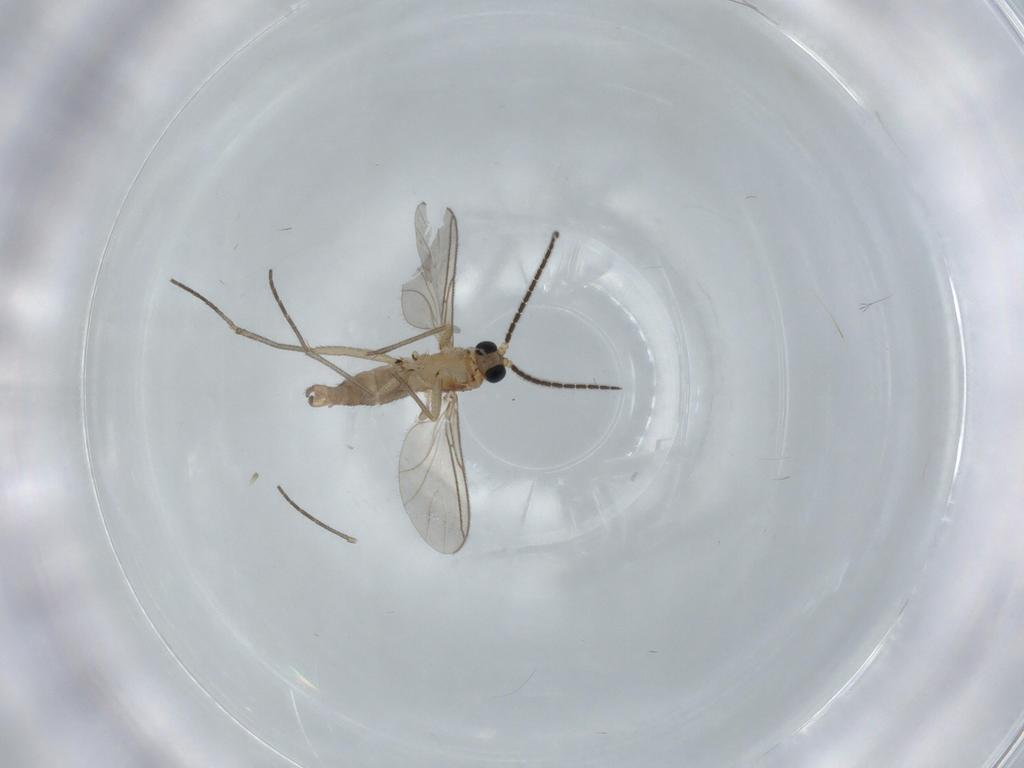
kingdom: Animalia
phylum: Arthropoda
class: Insecta
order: Diptera
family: Sciaridae
